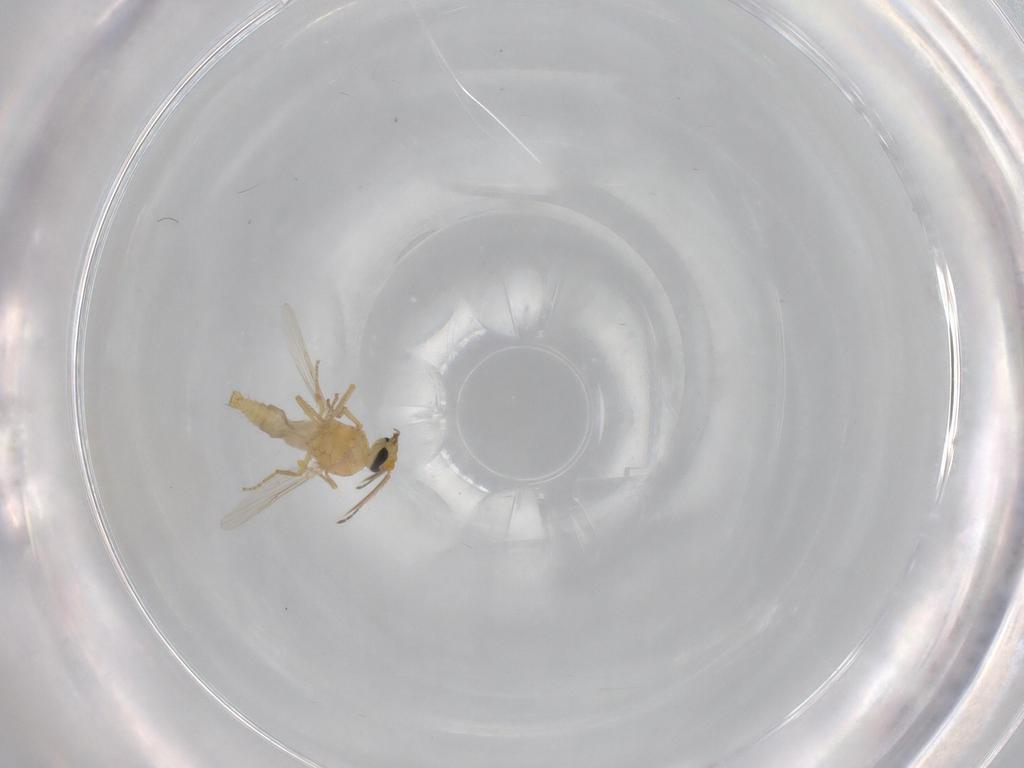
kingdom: Animalia
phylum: Arthropoda
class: Insecta
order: Diptera
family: Ceratopogonidae
